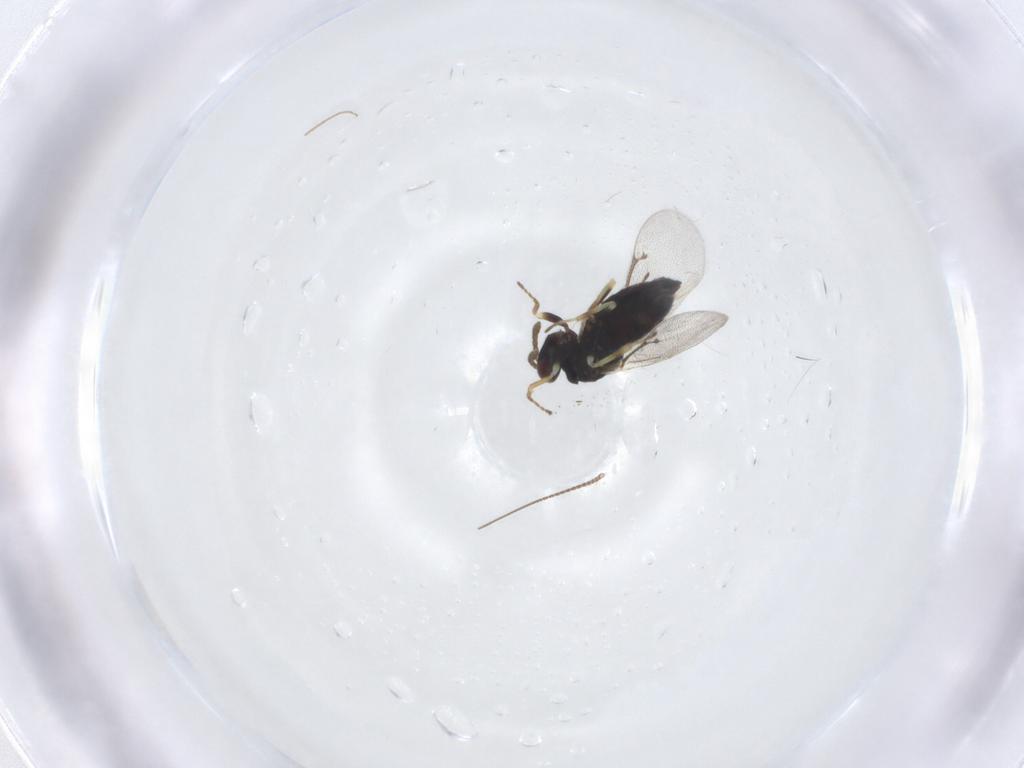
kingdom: Animalia
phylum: Arthropoda
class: Insecta
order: Hymenoptera
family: Eulophidae
